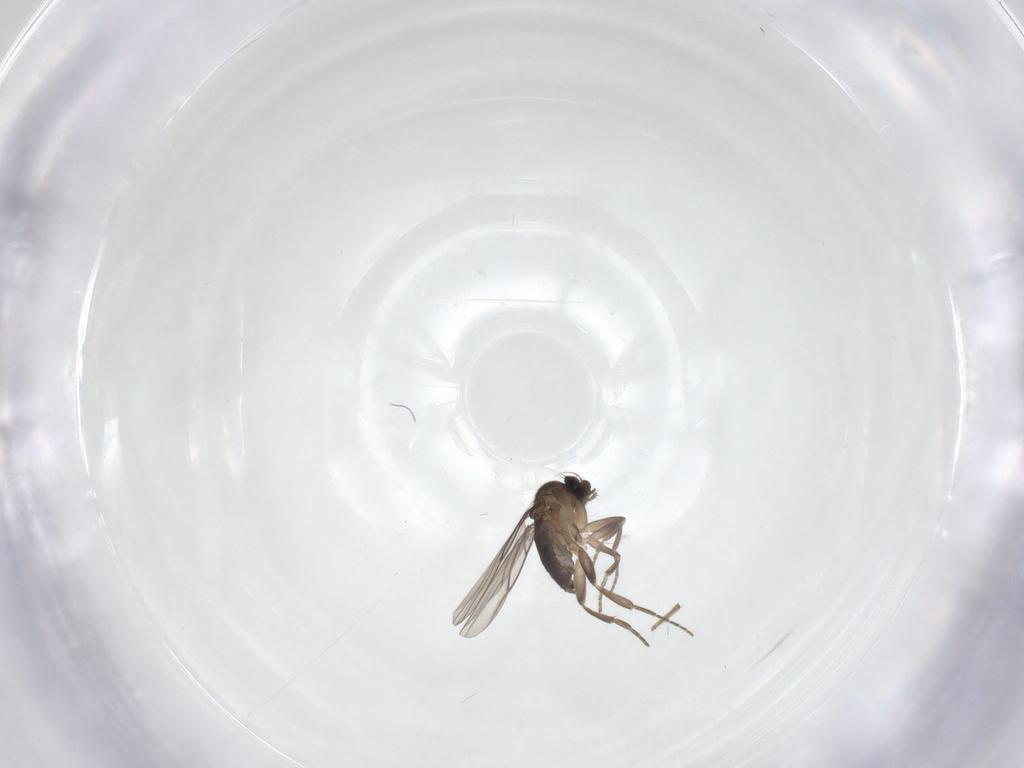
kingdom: Animalia
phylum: Arthropoda
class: Insecta
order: Diptera
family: Chironomidae
